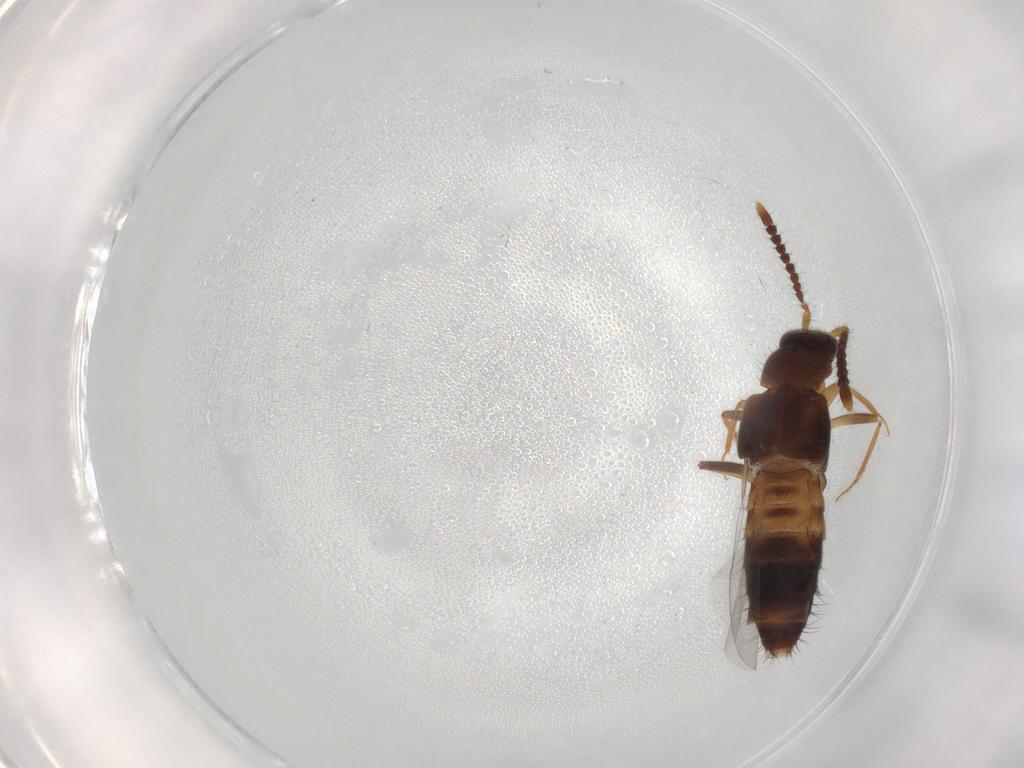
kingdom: Animalia
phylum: Arthropoda
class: Insecta
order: Coleoptera
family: Staphylinidae
